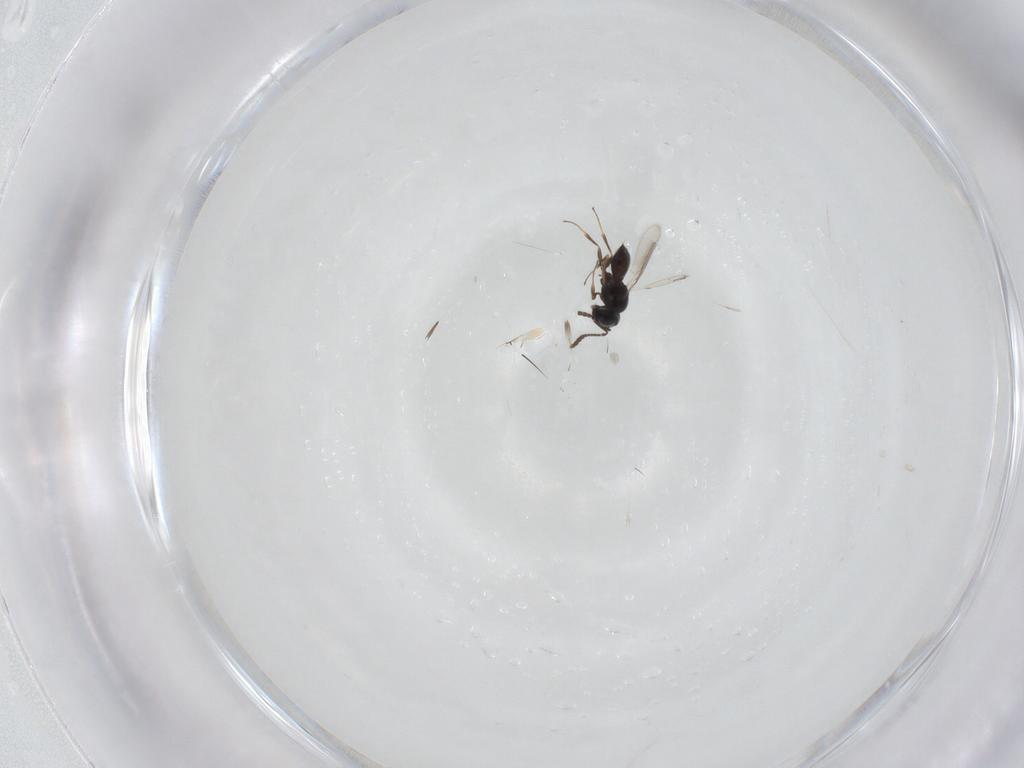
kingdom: Animalia
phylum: Arthropoda
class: Insecta
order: Hymenoptera
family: Scelionidae
